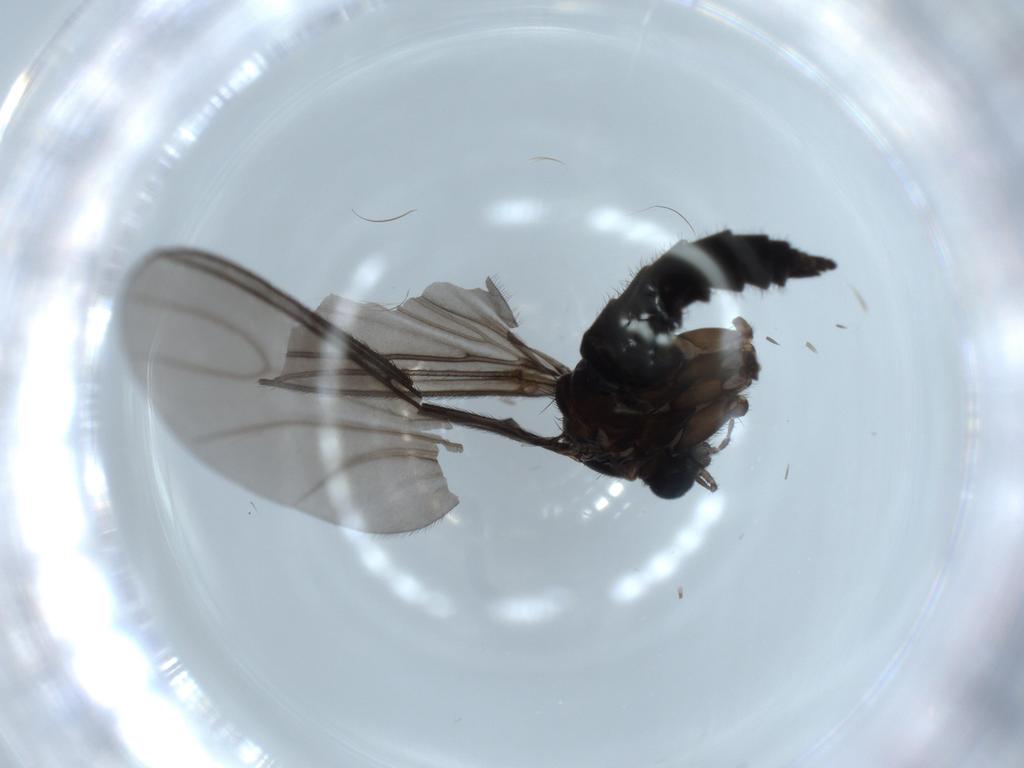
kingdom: Animalia
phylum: Arthropoda
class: Insecta
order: Diptera
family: Sciaridae
